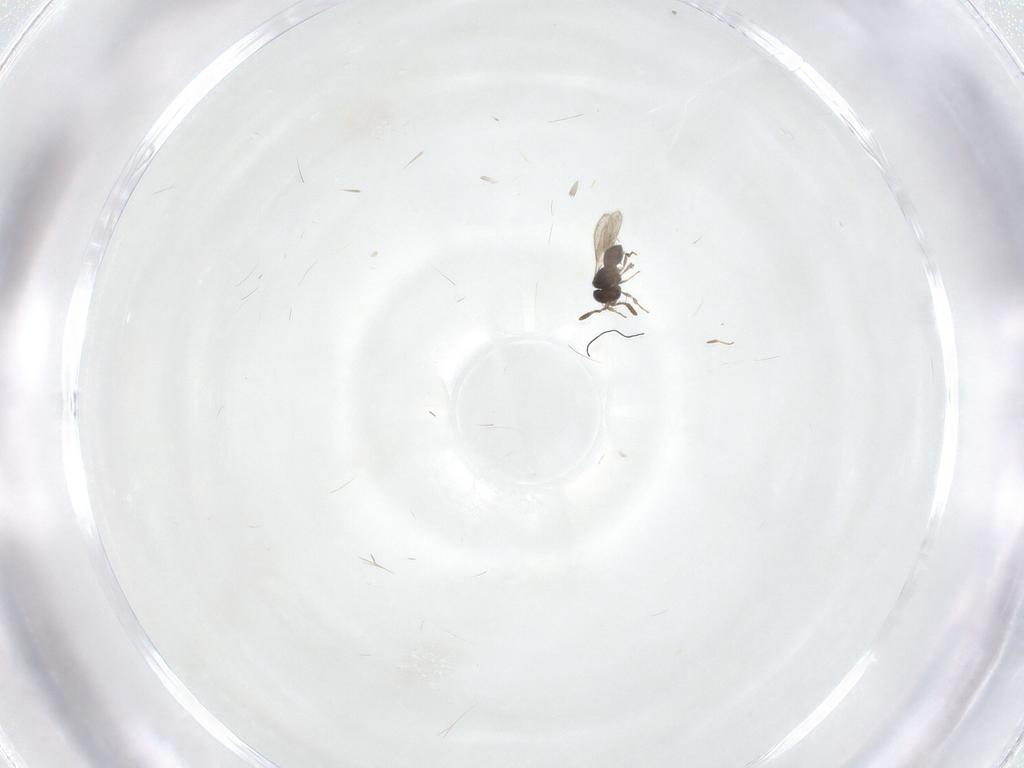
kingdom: Animalia
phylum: Arthropoda
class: Insecta
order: Hymenoptera
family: Scelionidae
